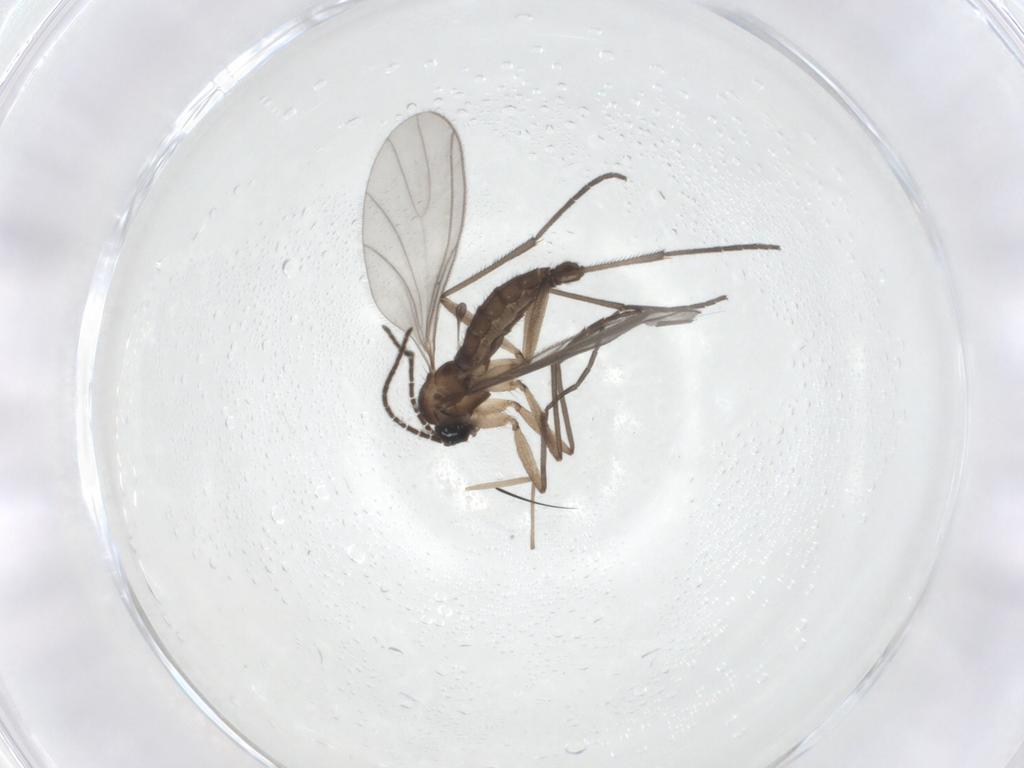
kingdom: Animalia
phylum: Arthropoda
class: Insecta
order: Diptera
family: Sciaridae
